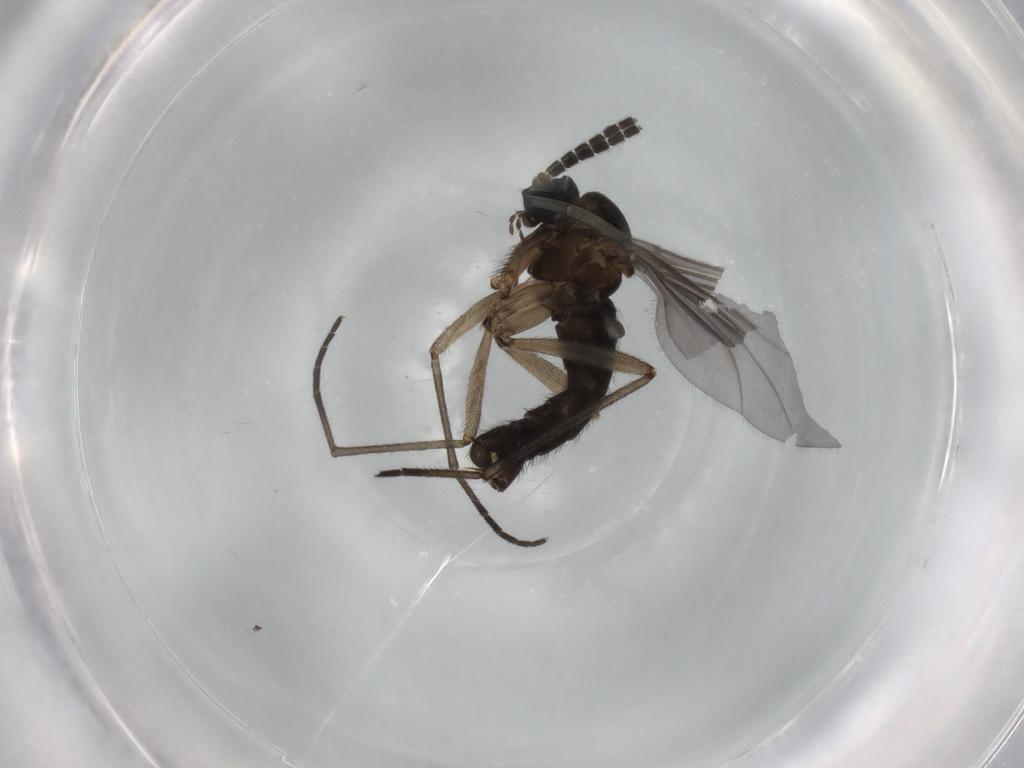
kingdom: Animalia
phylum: Arthropoda
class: Insecta
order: Diptera
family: Sciaridae
